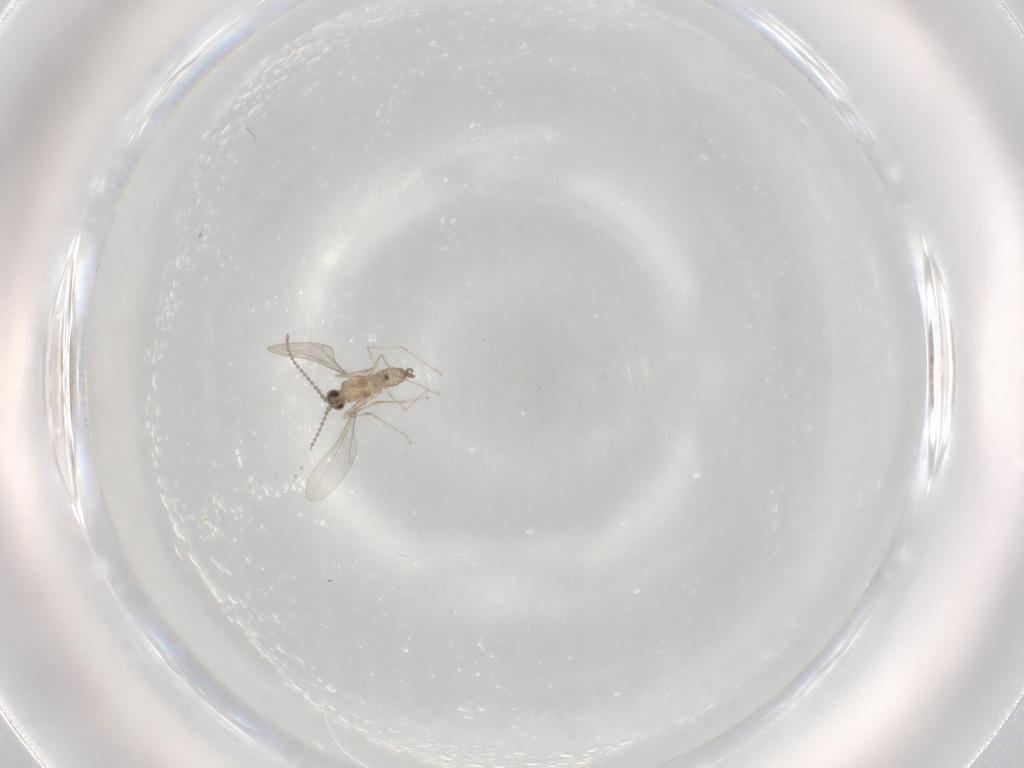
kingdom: Animalia
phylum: Arthropoda
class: Insecta
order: Diptera
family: Cecidomyiidae
